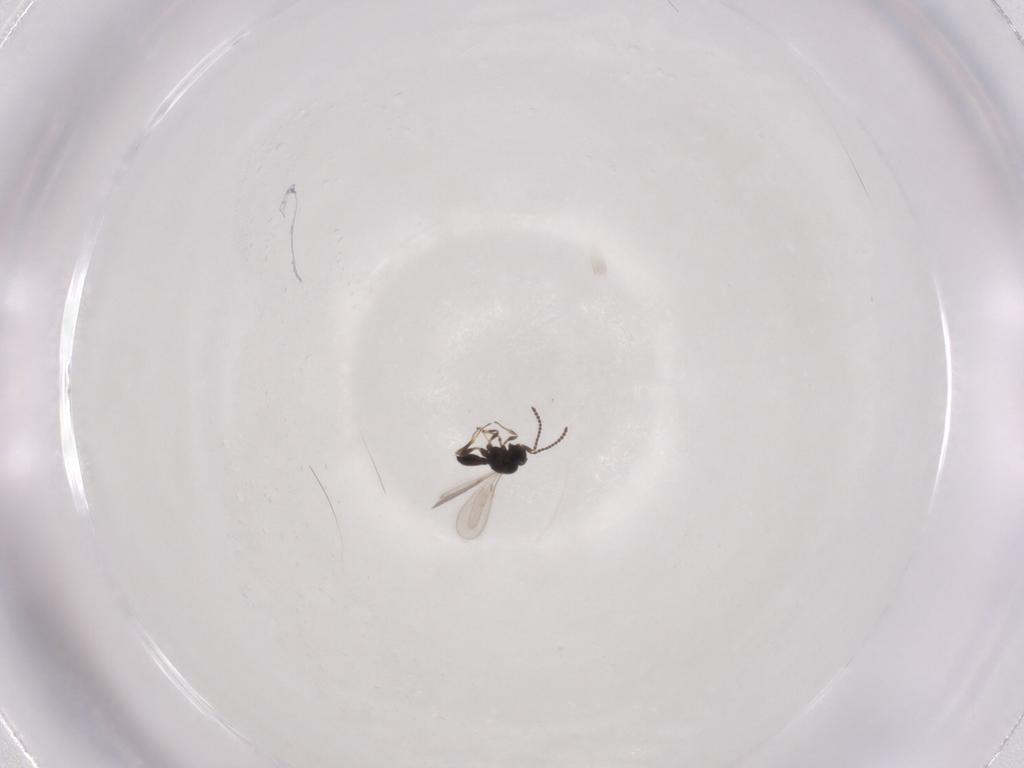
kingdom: Animalia
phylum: Arthropoda
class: Insecta
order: Hymenoptera
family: Scelionidae
